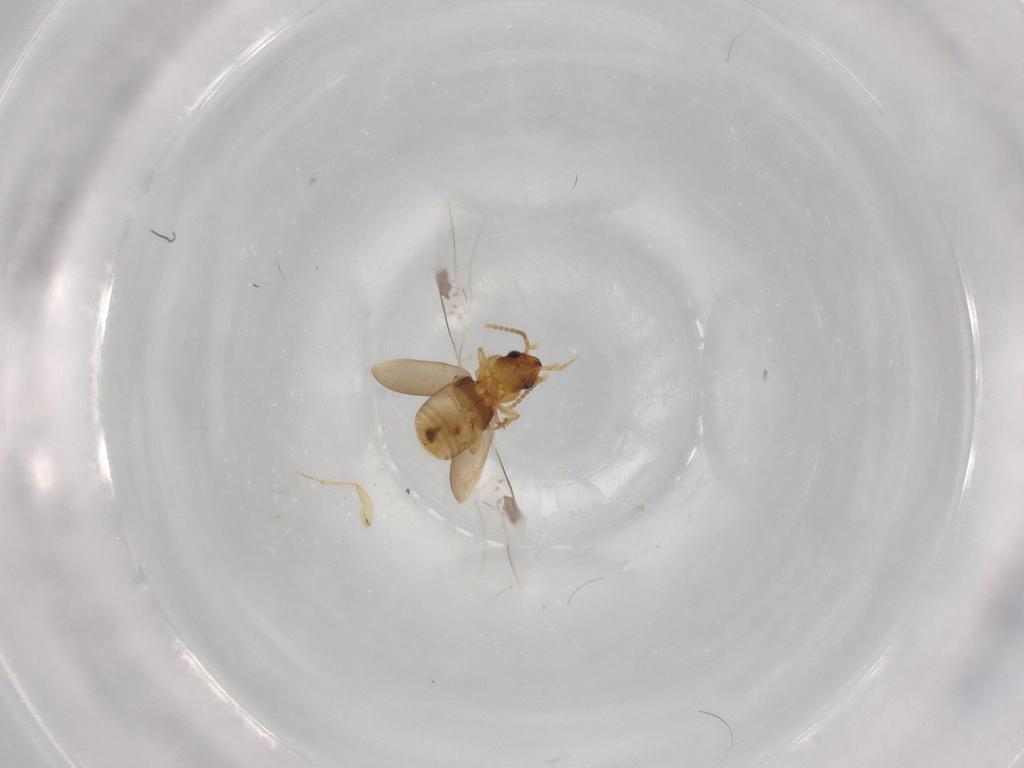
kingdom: Animalia
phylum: Arthropoda
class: Insecta
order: Coleoptera
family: Carabidae
